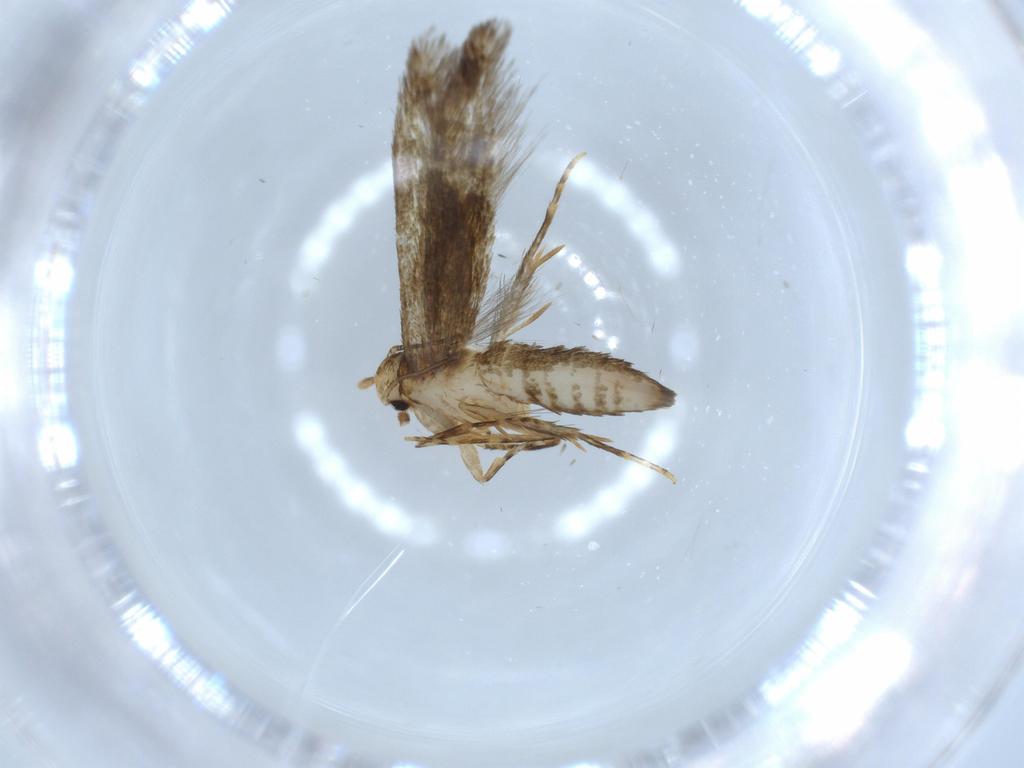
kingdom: Animalia
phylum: Arthropoda
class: Insecta
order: Lepidoptera
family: Tineidae
